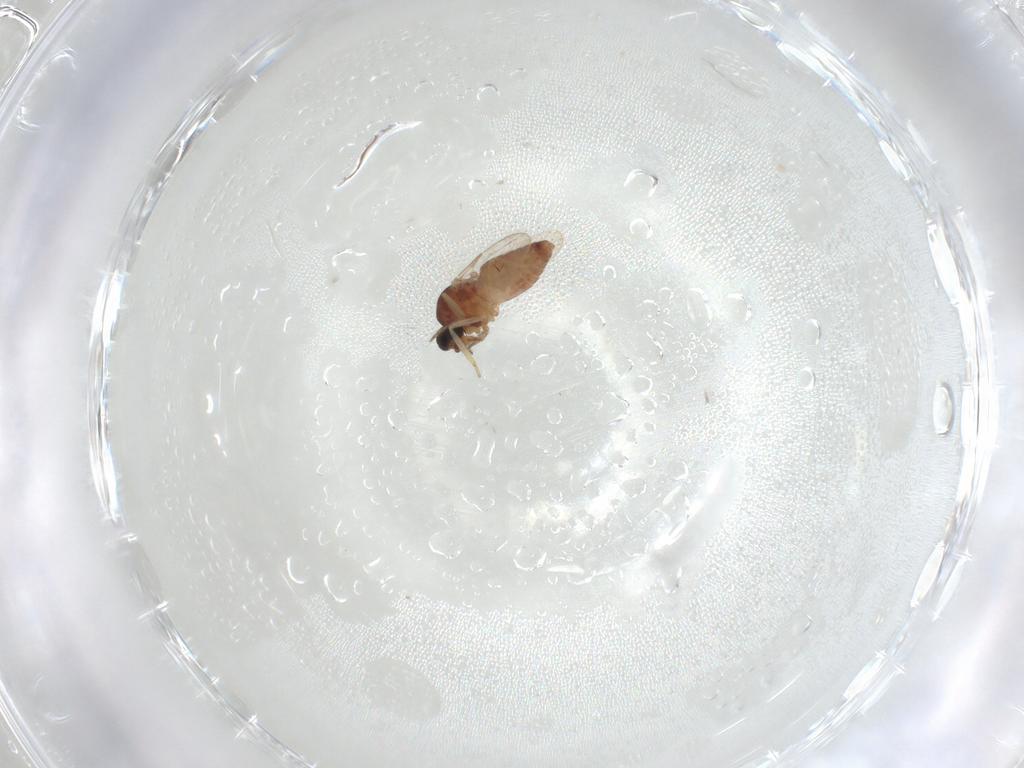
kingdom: Animalia
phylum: Arthropoda
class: Insecta
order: Diptera
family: Ceratopogonidae
